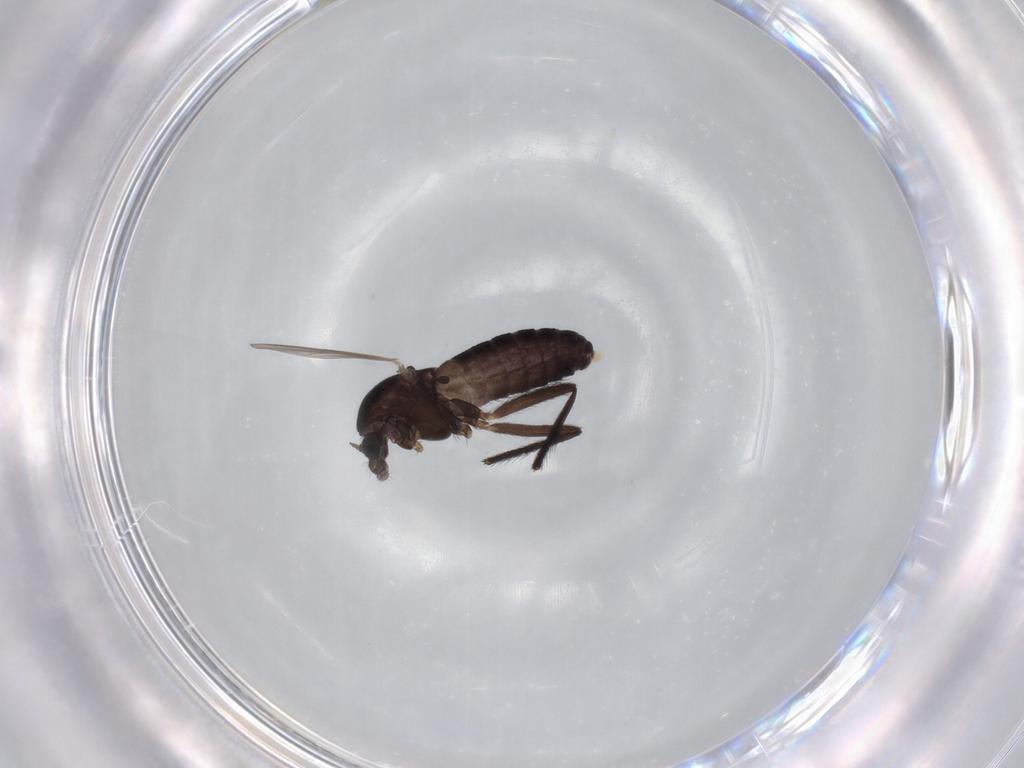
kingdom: Animalia
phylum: Arthropoda
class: Insecta
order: Diptera
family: Chironomidae
